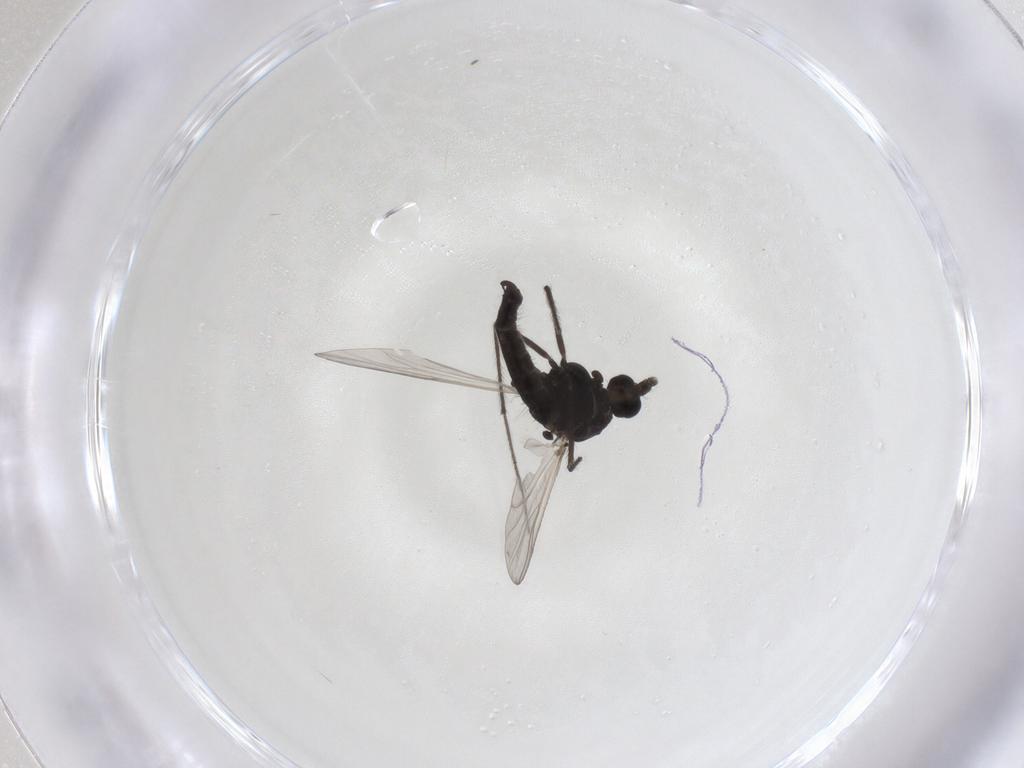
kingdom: Animalia
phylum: Arthropoda
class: Insecta
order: Diptera
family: Chironomidae
